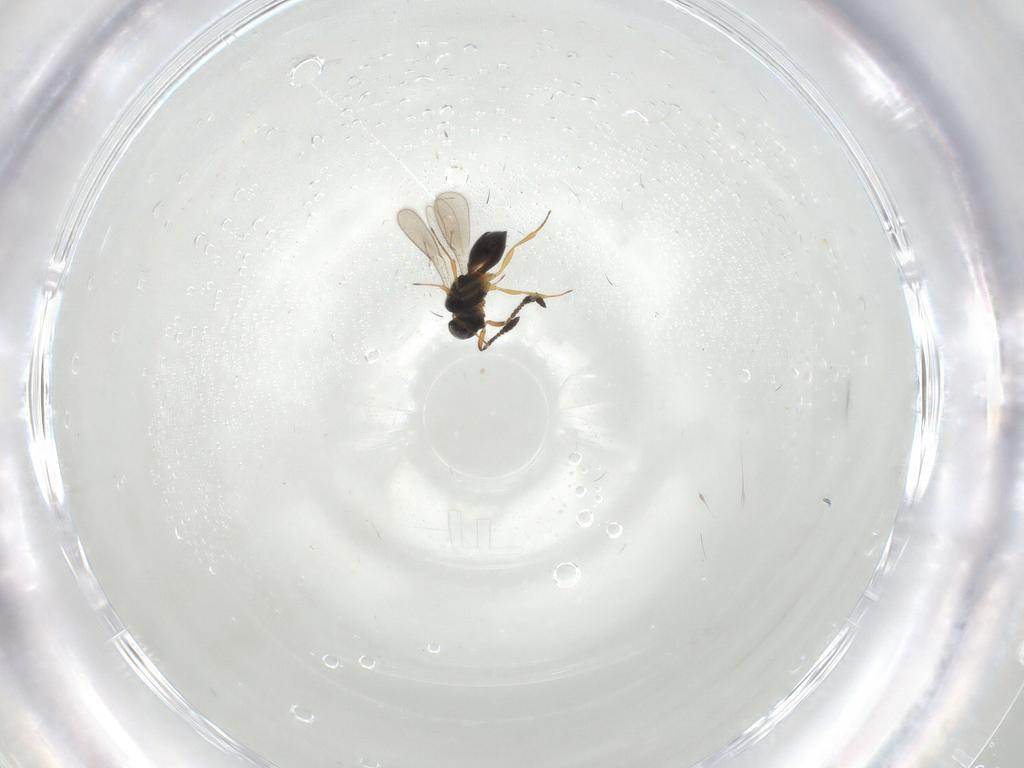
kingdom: Animalia
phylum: Arthropoda
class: Insecta
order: Hymenoptera
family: Scelionidae
